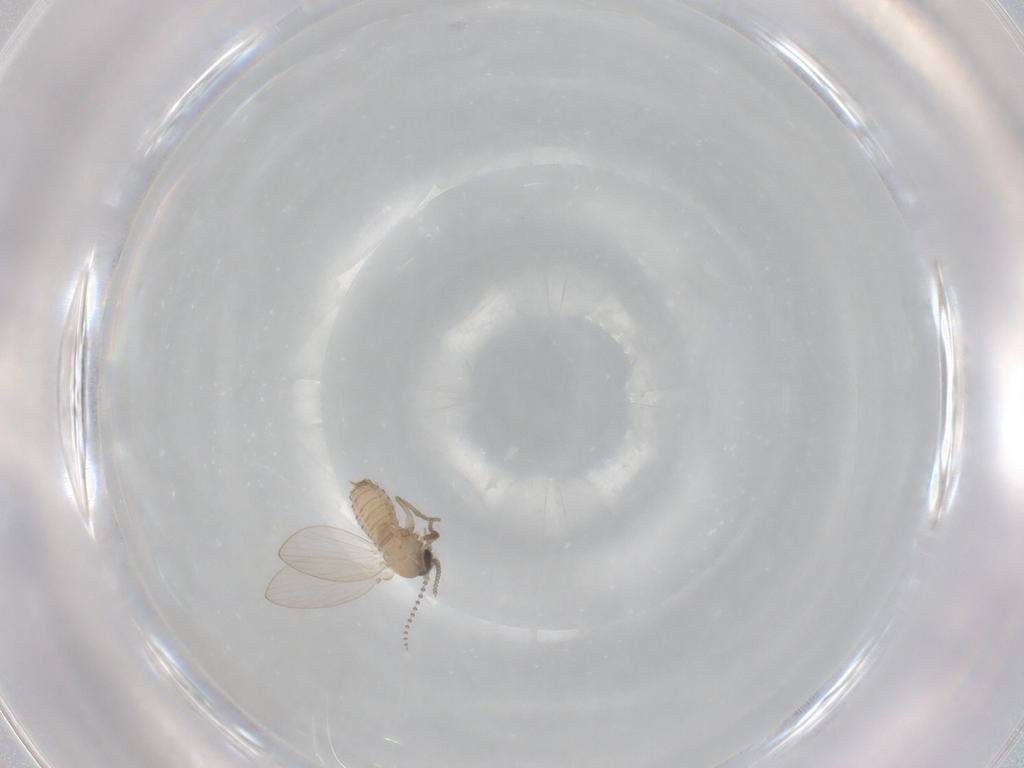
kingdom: Animalia
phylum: Arthropoda
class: Insecta
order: Diptera
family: Psychodidae
